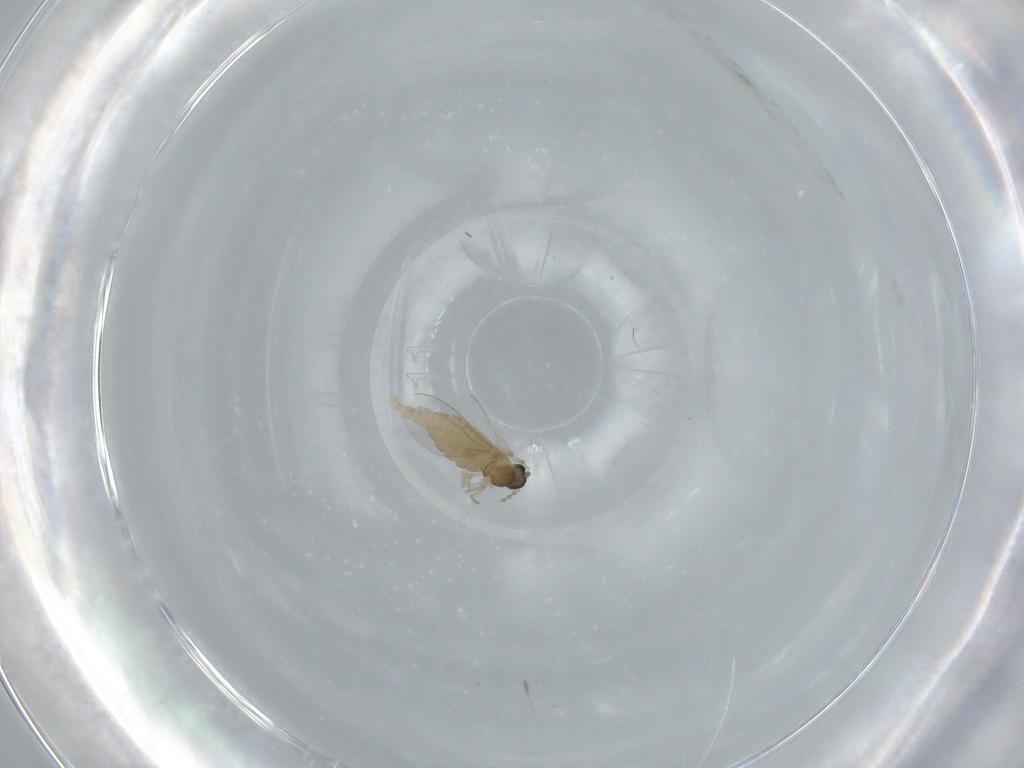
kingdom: Animalia
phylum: Arthropoda
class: Insecta
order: Diptera
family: Cecidomyiidae
